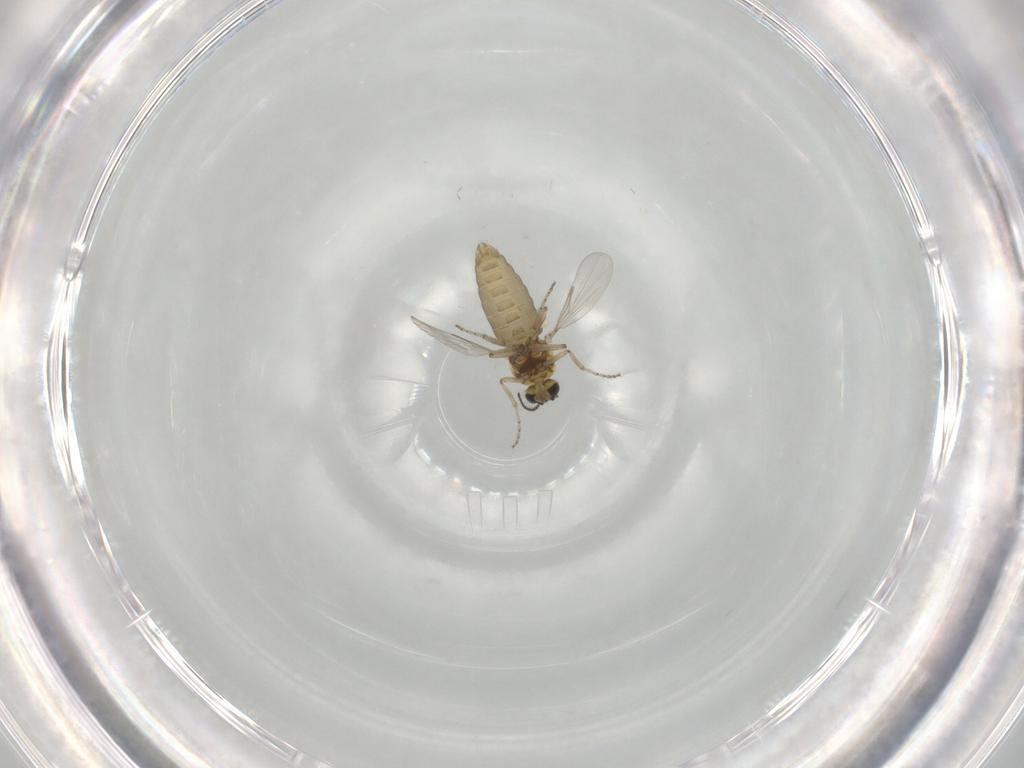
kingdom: Animalia
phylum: Arthropoda
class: Insecta
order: Diptera
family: Ceratopogonidae
